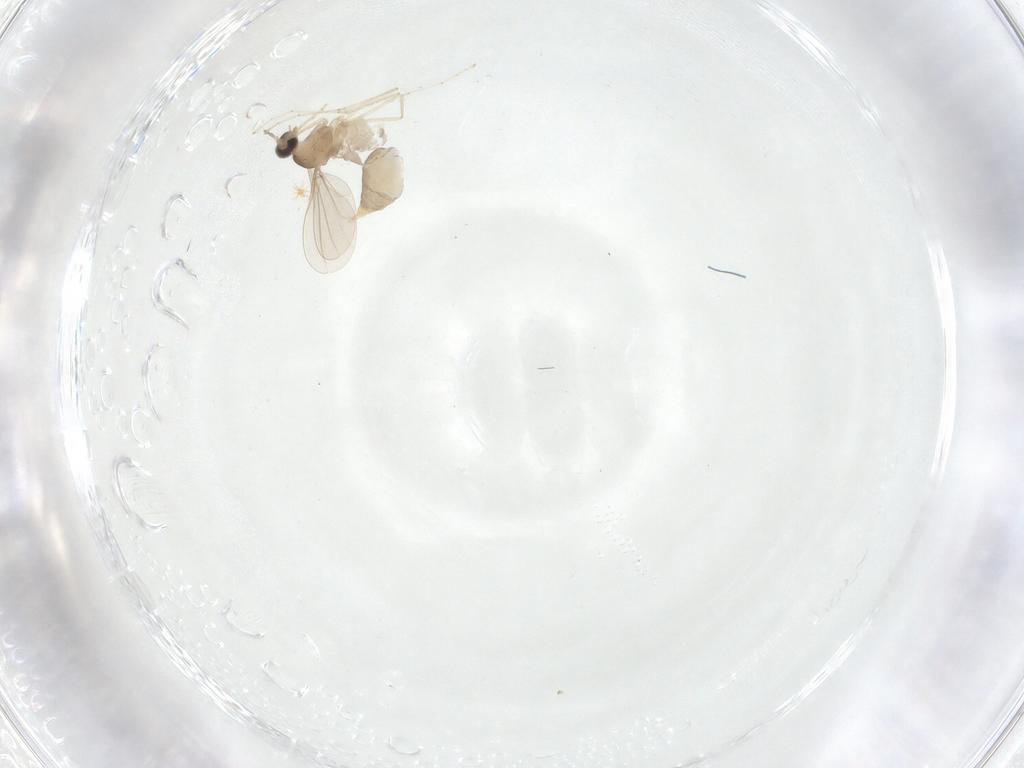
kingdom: Animalia
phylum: Arthropoda
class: Insecta
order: Diptera
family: Cecidomyiidae
